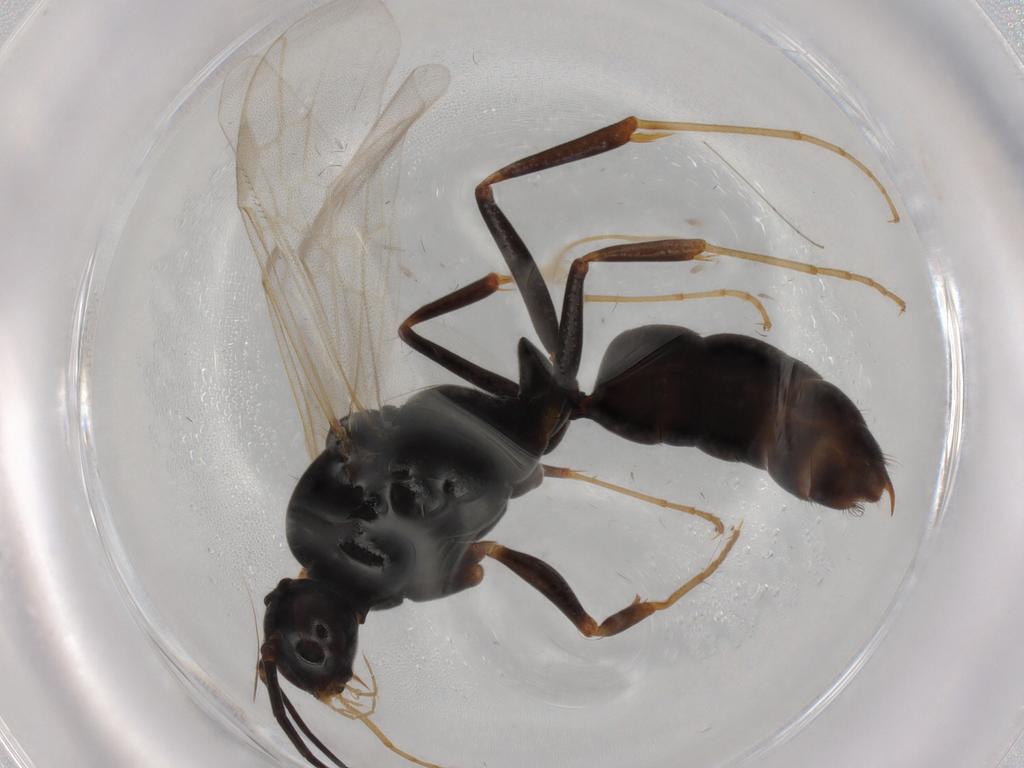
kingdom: Animalia
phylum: Arthropoda
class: Insecta
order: Hymenoptera
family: Formicidae
